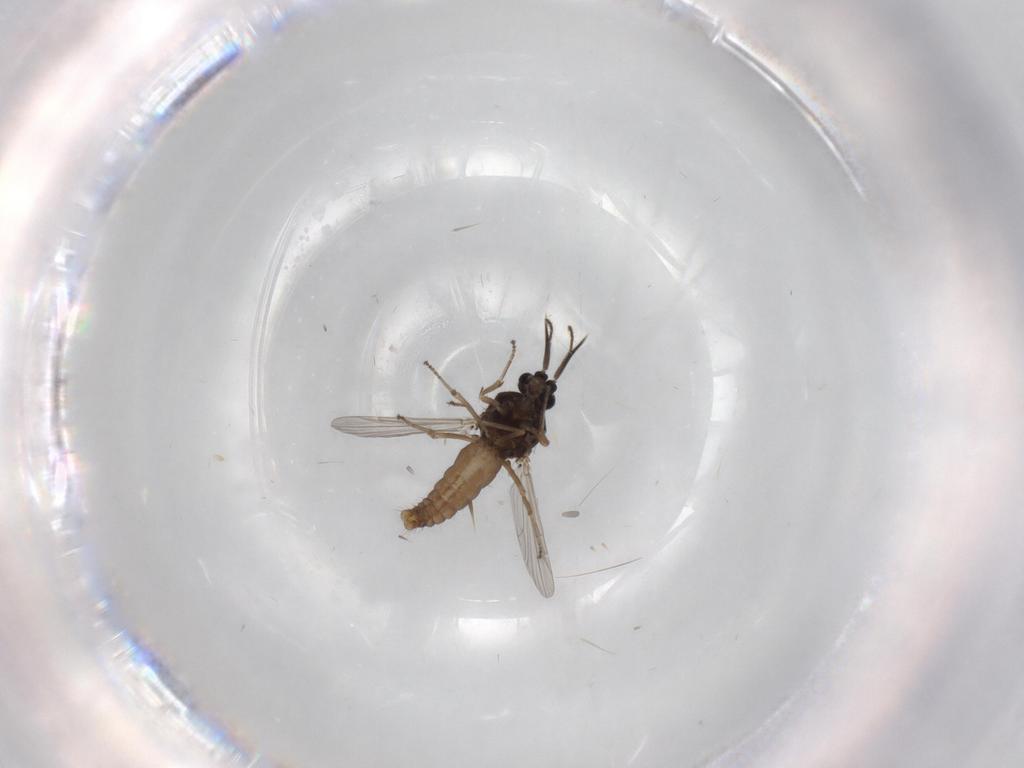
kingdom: Animalia
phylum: Arthropoda
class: Insecta
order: Diptera
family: Ceratopogonidae
